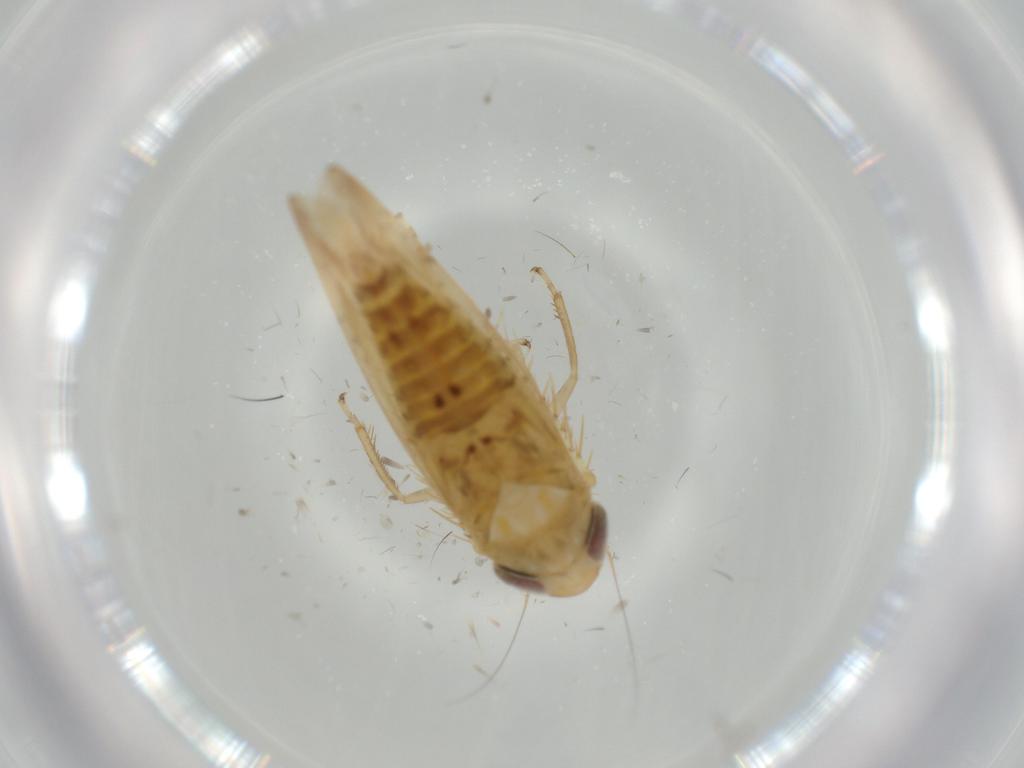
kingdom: Animalia
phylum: Arthropoda
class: Insecta
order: Hemiptera
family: Cicadellidae
